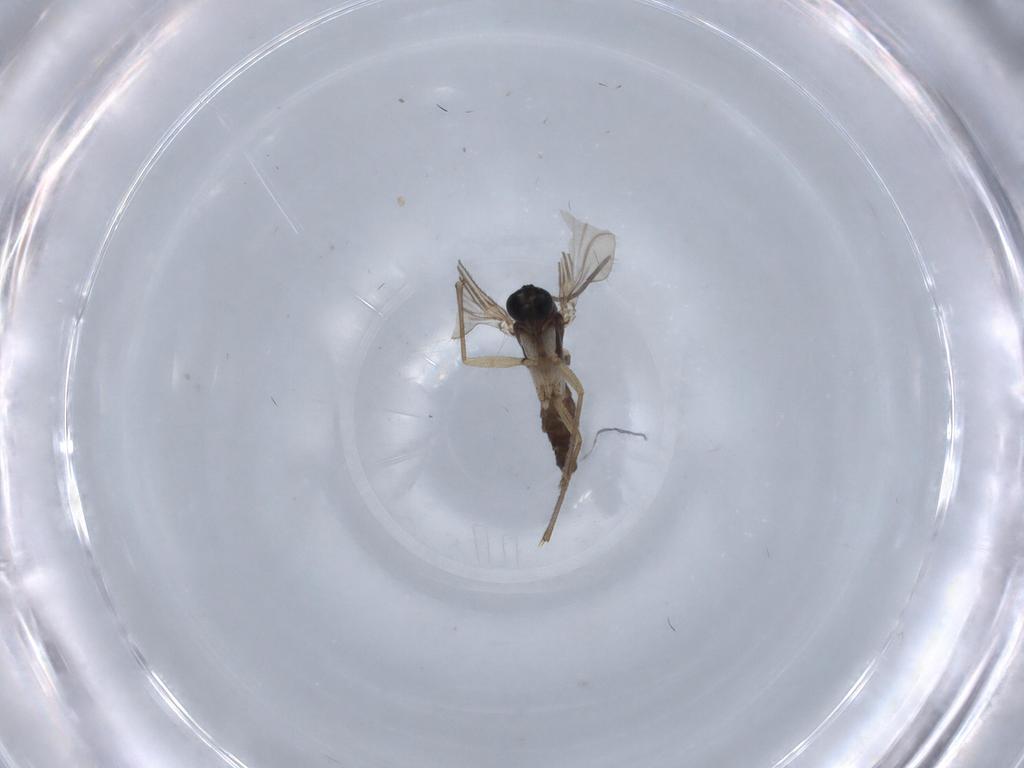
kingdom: Animalia
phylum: Arthropoda
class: Insecta
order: Diptera
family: Sciaridae
